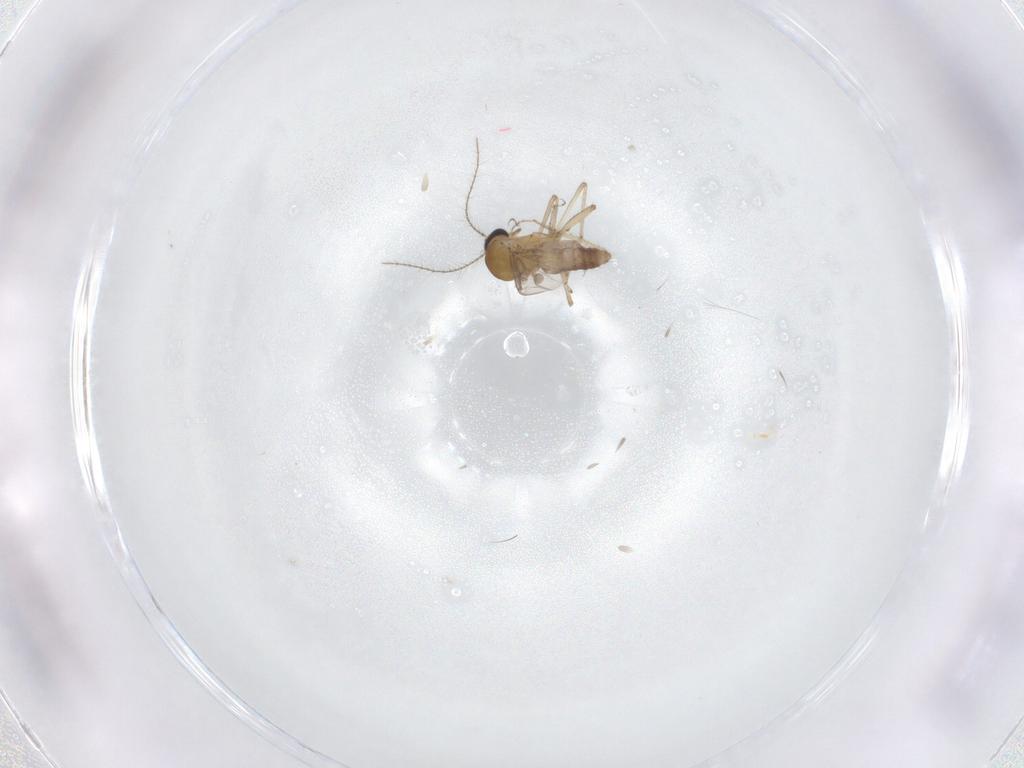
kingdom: Animalia
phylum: Arthropoda
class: Insecta
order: Diptera
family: Ceratopogonidae
